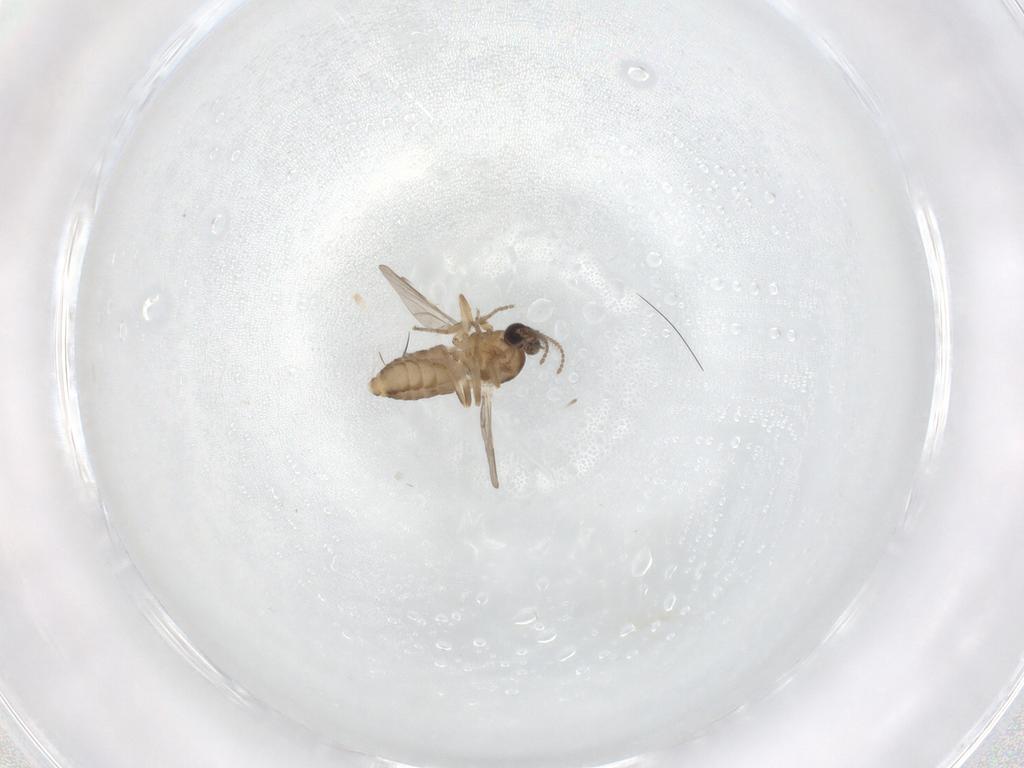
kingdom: Animalia
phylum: Arthropoda
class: Insecta
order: Diptera
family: Ceratopogonidae
